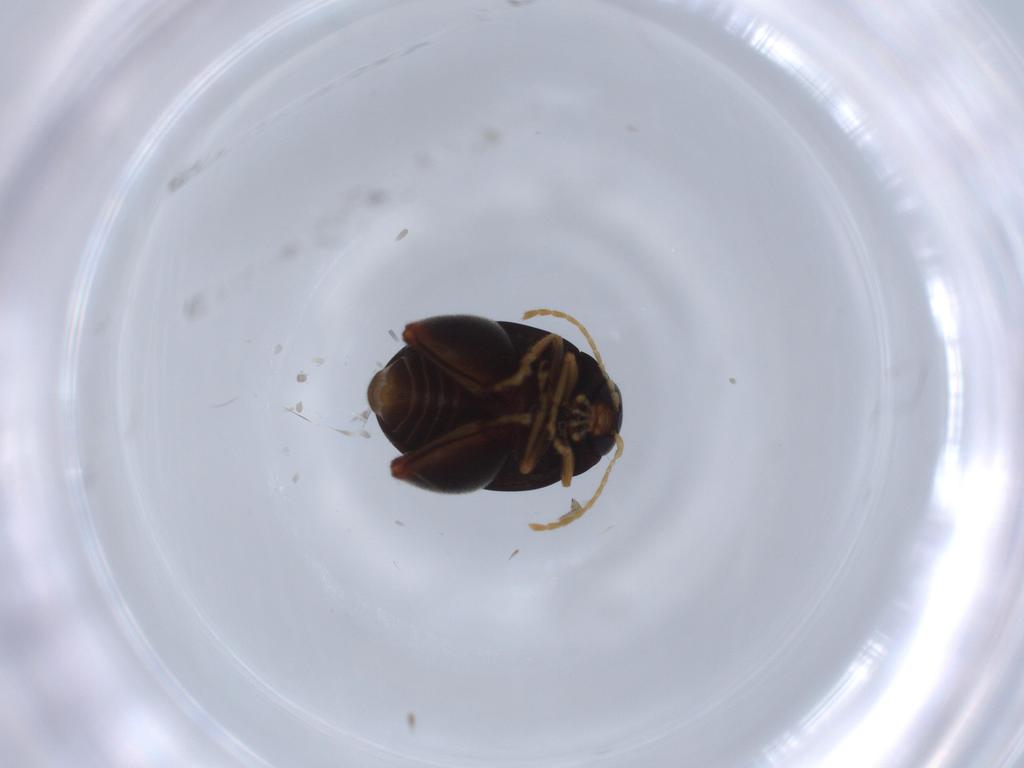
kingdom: Animalia
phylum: Arthropoda
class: Insecta
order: Coleoptera
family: Chrysomelidae
